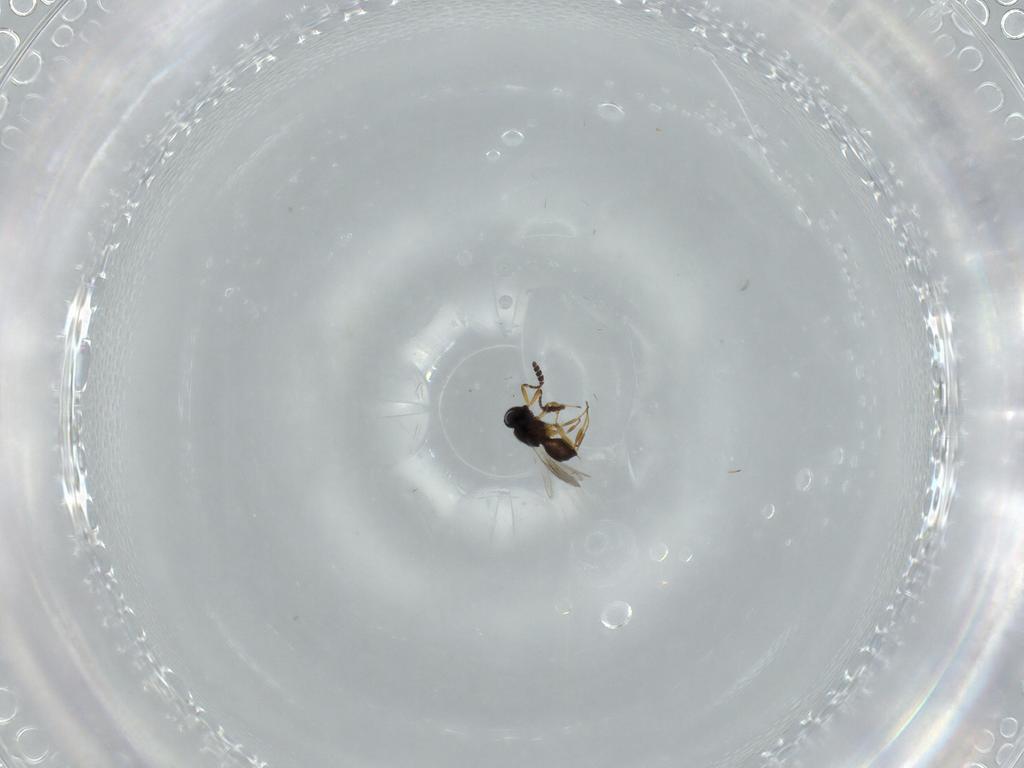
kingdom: Animalia
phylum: Arthropoda
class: Insecta
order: Hymenoptera
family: Scelionidae
